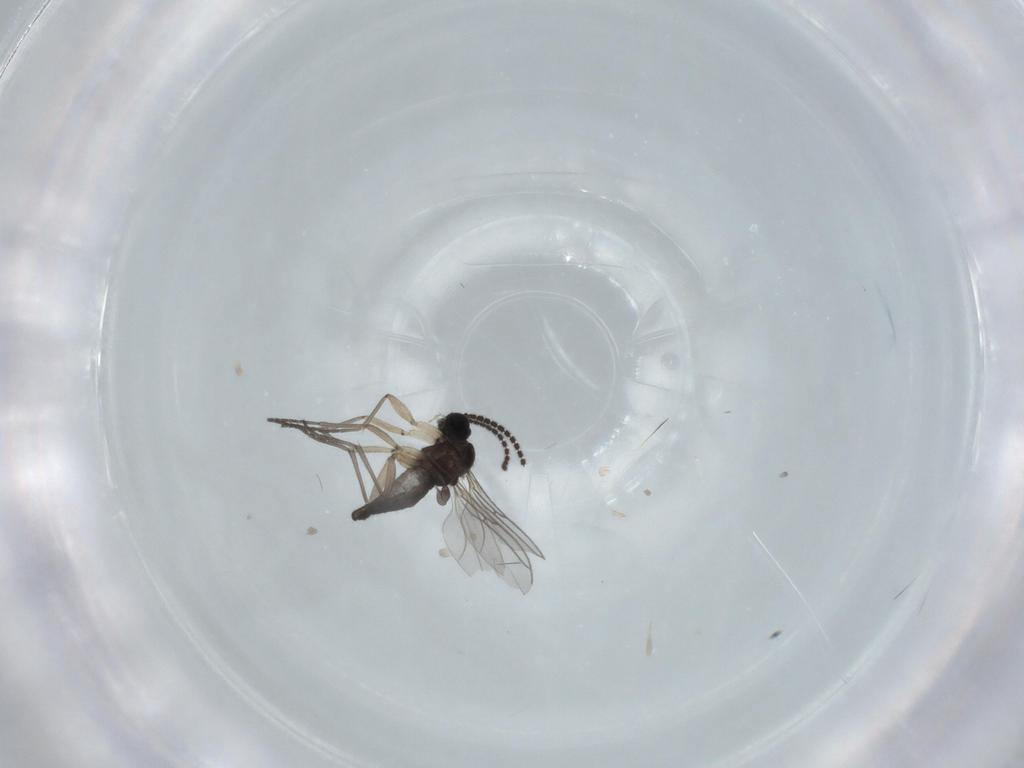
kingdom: Animalia
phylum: Arthropoda
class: Insecta
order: Diptera
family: Sciaridae
